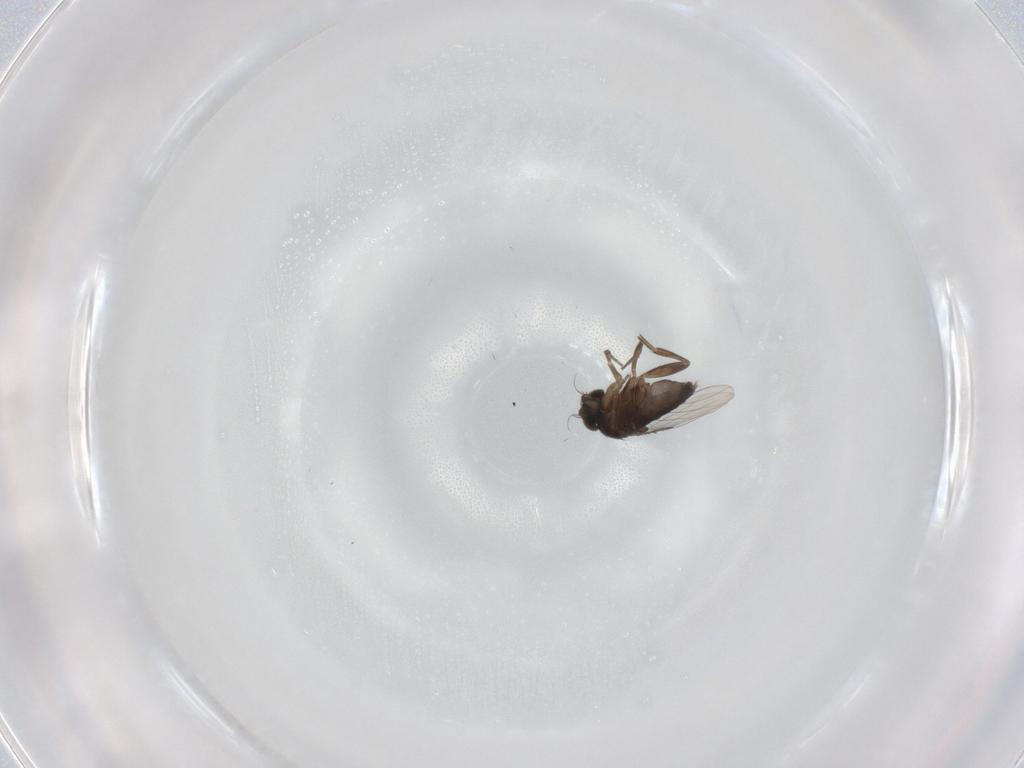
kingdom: Animalia
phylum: Arthropoda
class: Insecta
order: Diptera
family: Phoridae
